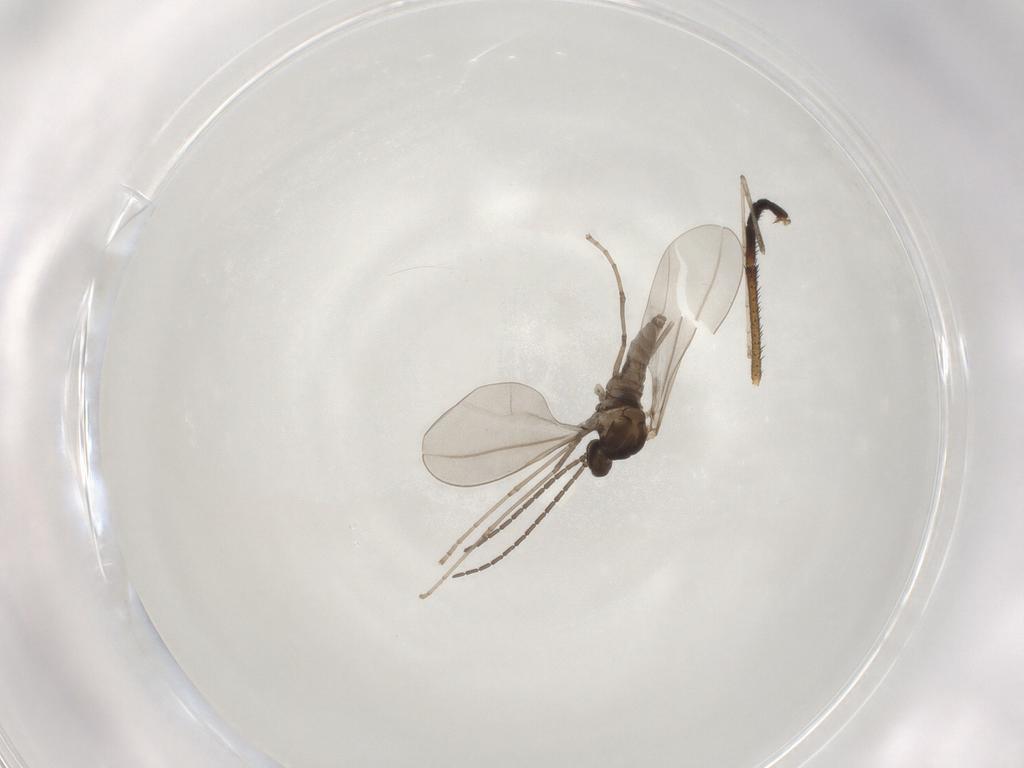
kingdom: Animalia
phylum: Arthropoda
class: Insecta
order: Diptera
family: Cecidomyiidae
